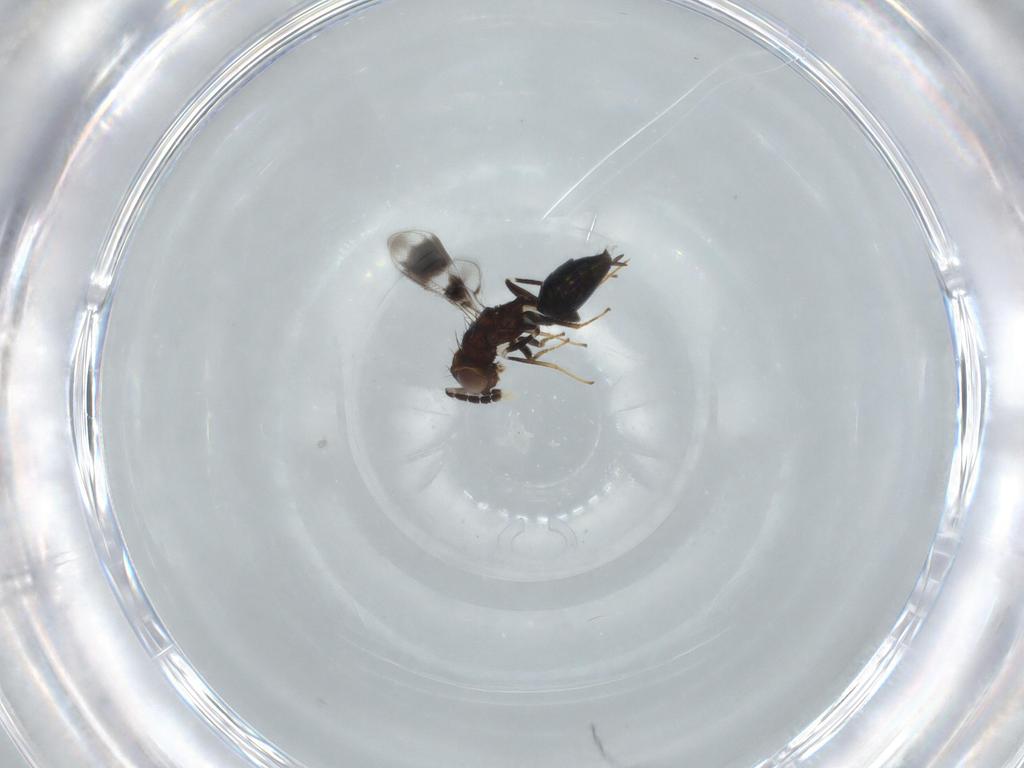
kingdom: Animalia
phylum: Arthropoda
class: Insecta
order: Hymenoptera
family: Eulophidae
